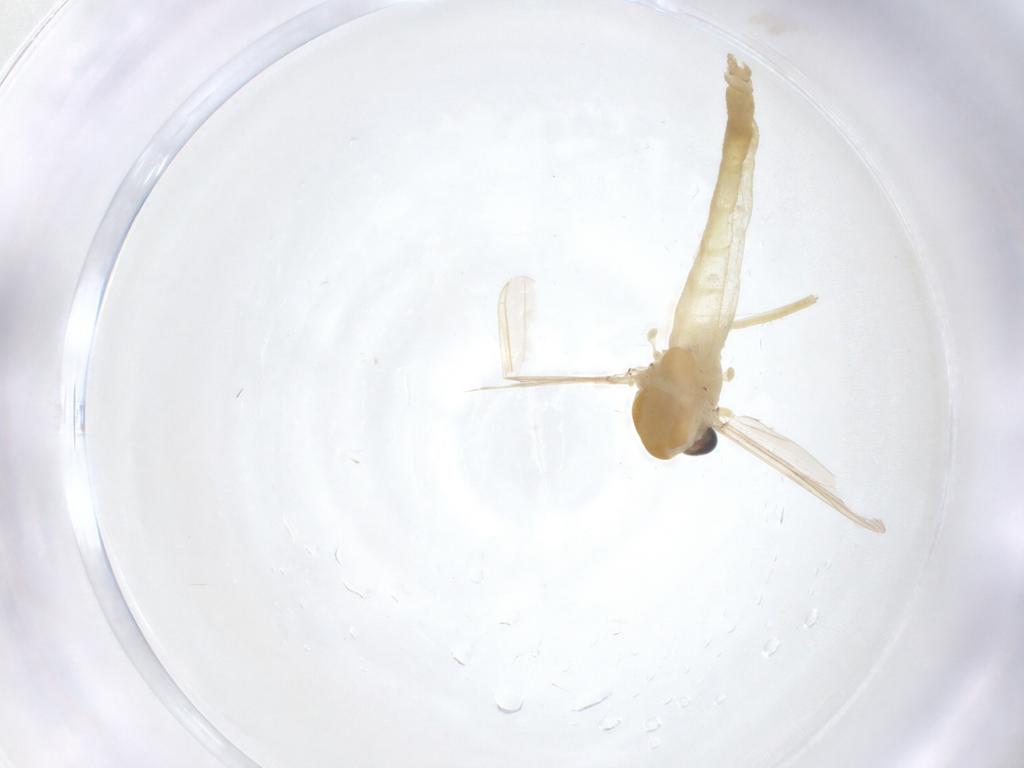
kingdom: Animalia
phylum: Arthropoda
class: Insecta
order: Diptera
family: Chironomidae
